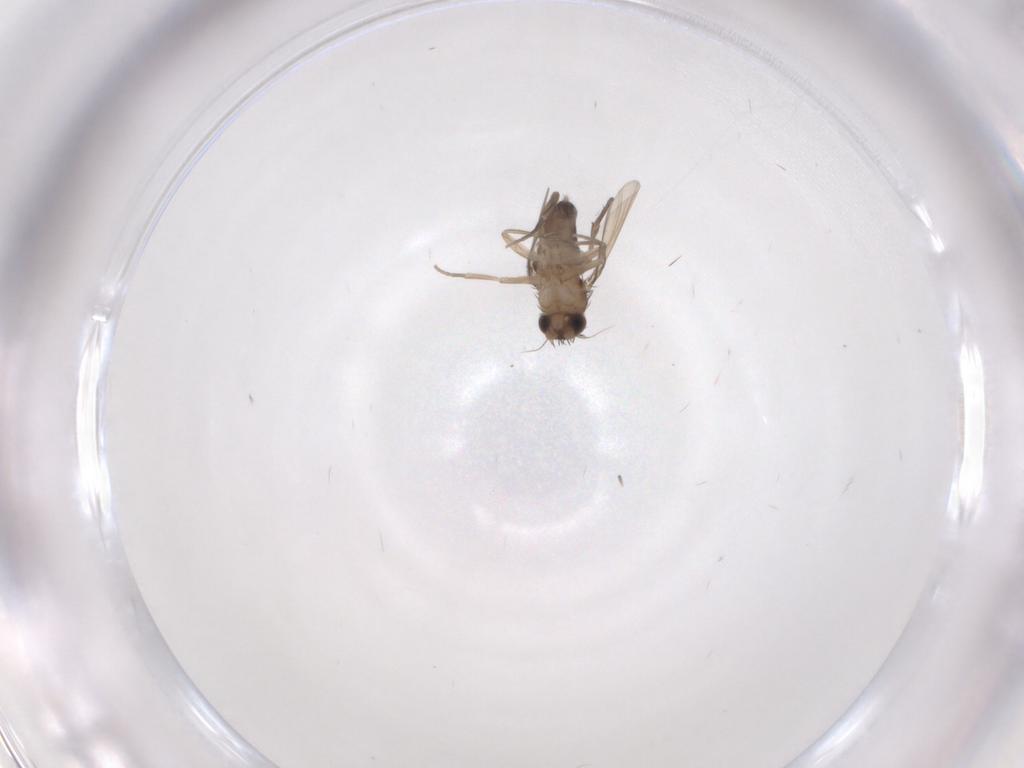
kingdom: Animalia
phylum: Arthropoda
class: Insecta
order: Diptera
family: Phoridae
